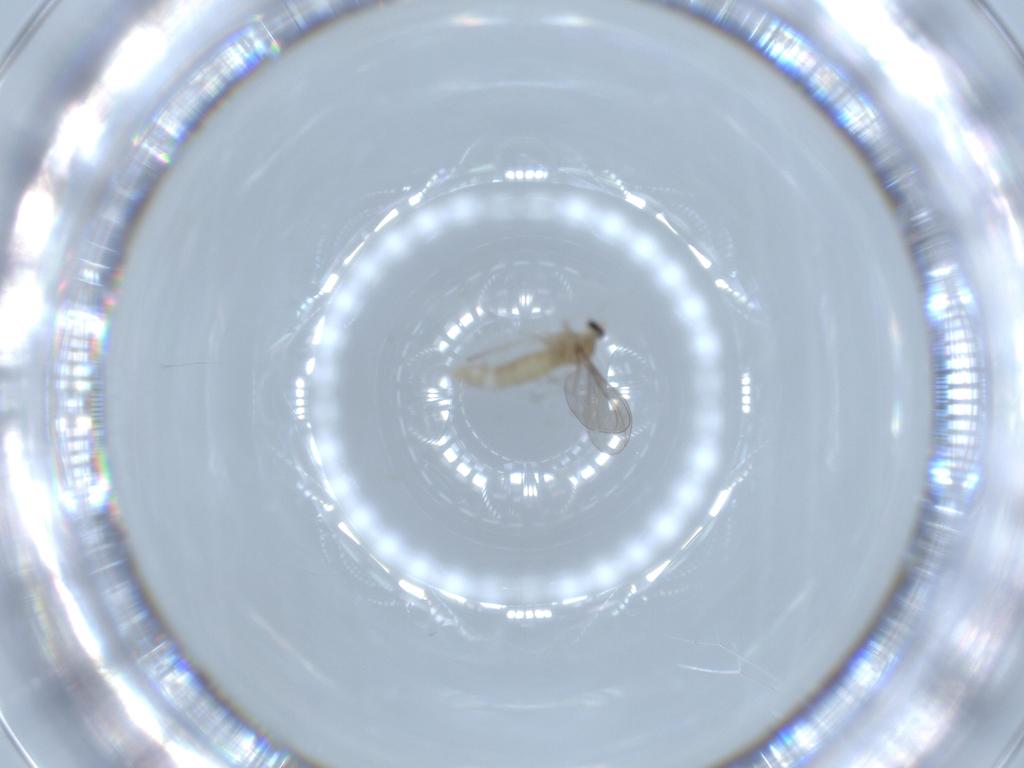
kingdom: Animalia
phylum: Arthropoda
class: Insecta
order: Diptera
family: Cecidomyiidae
